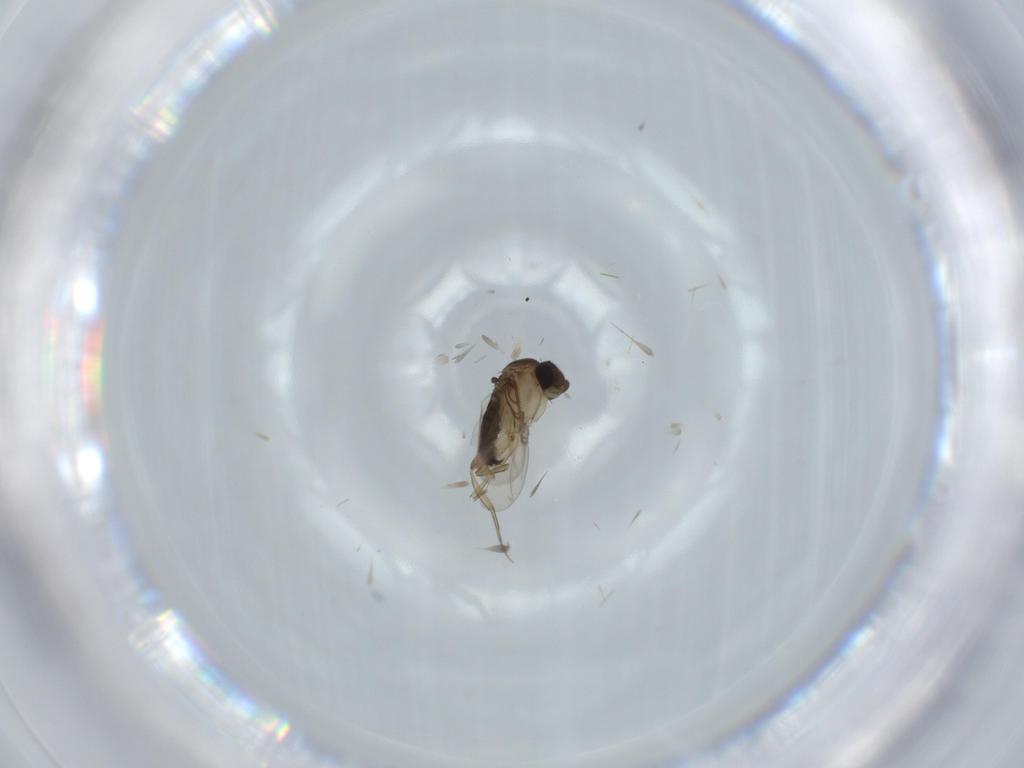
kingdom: Animalia
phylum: Arthropoda
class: Insecta
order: Diptera
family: Phoridae
